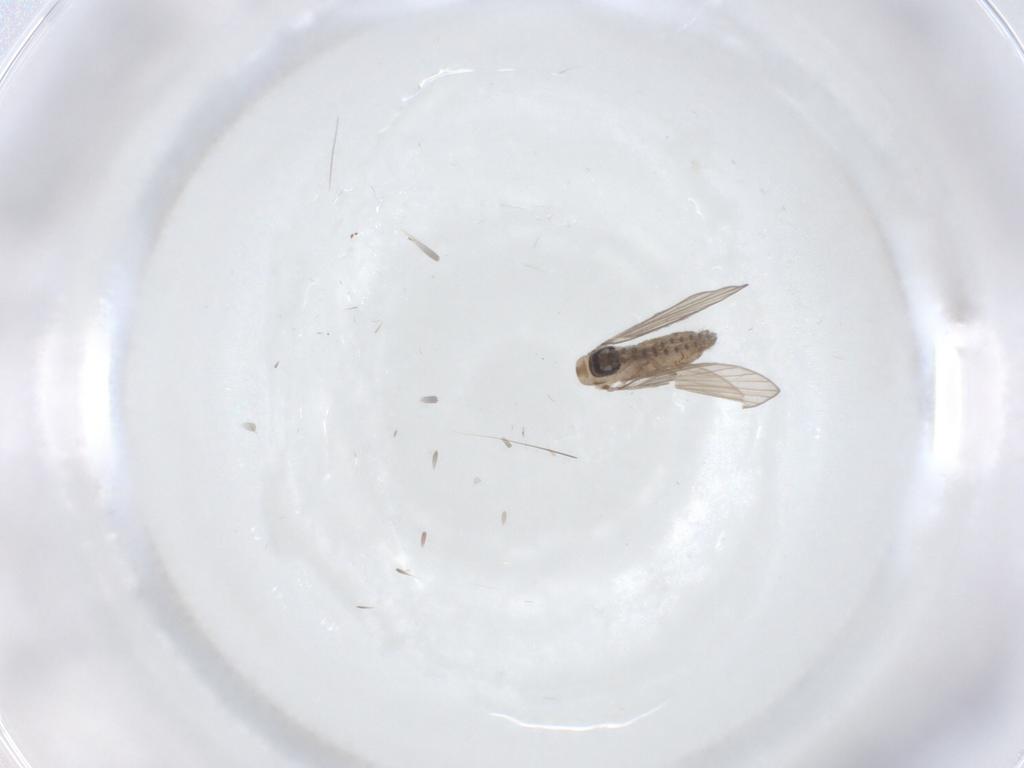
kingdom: Animalia
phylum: Arthropoda
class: Insecta
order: Diptera
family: Psychodidae
